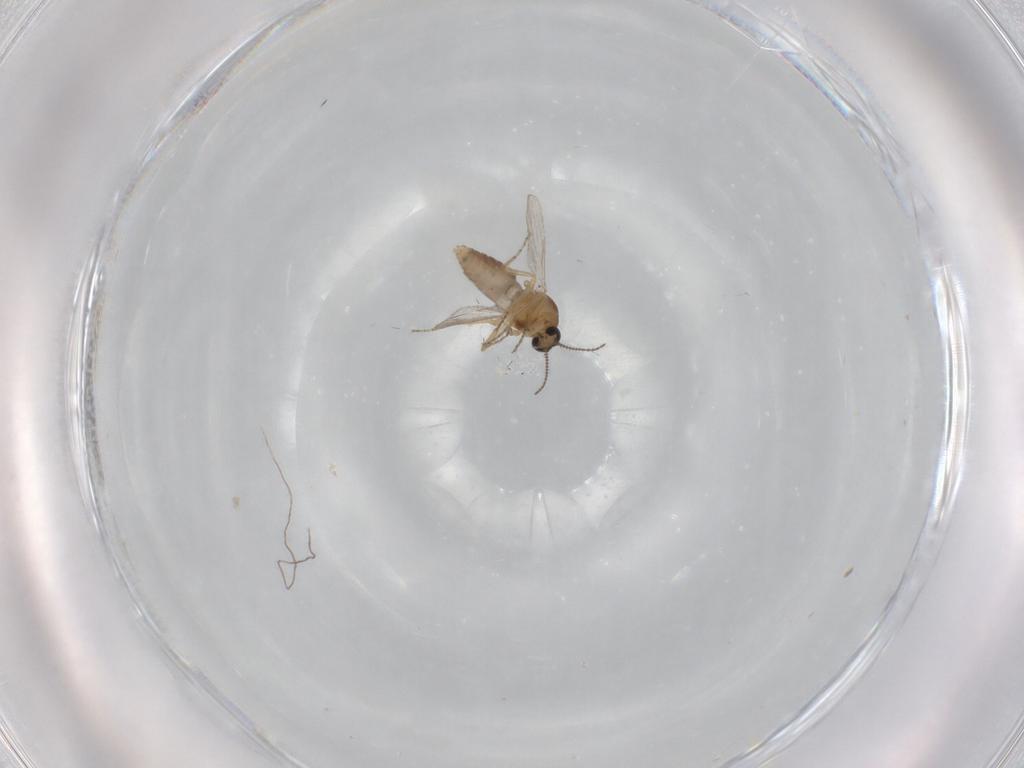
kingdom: Animalia
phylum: Arthropoda
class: Insecta
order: Diptera
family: Ceratopogonidae
